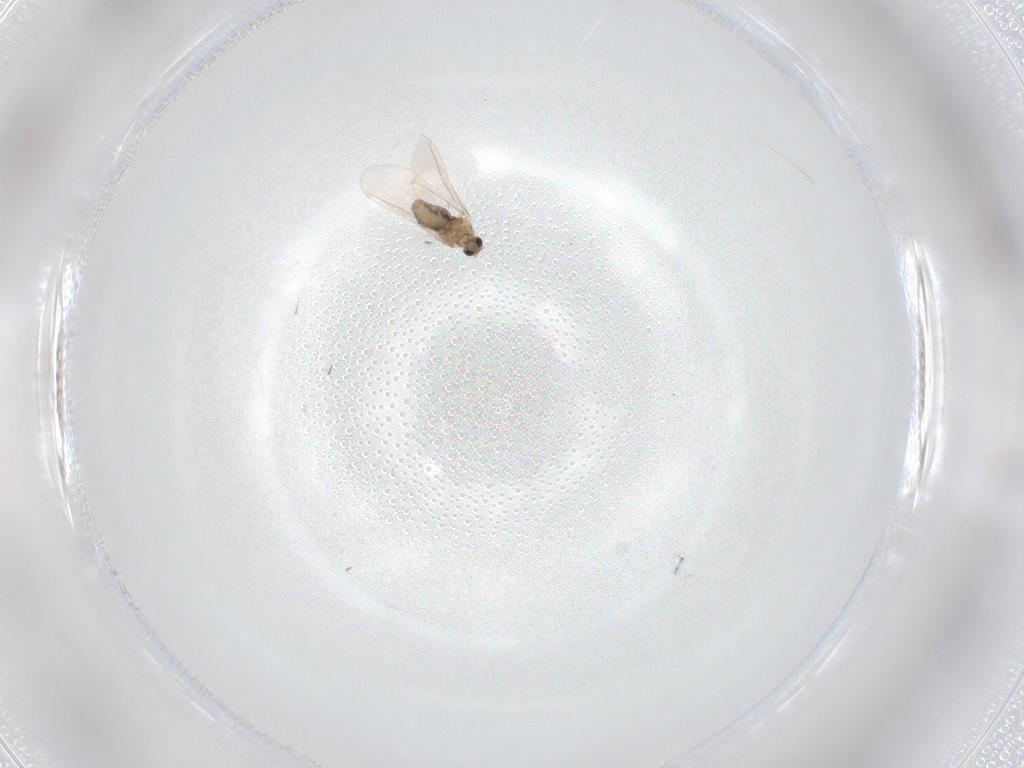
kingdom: Animalia
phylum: Arthropoda
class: Insecta
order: Diptera
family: Cecidomyiidae
